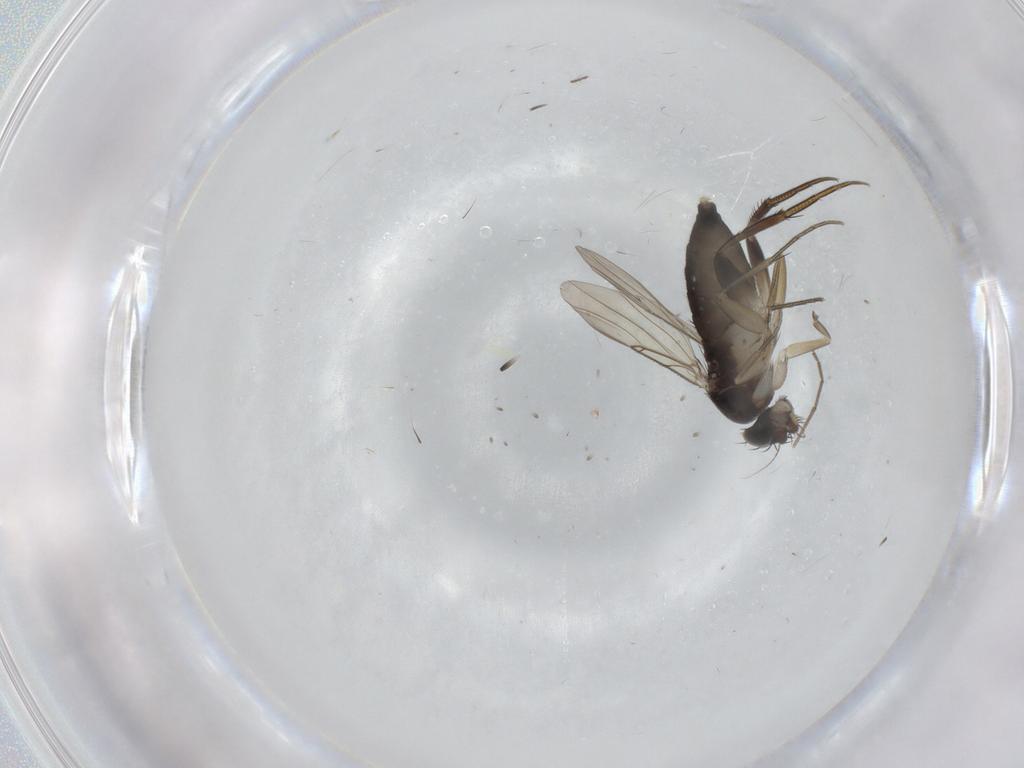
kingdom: Animalia
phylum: Arthropoda
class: Insecta
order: Diptera
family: Phoridae
